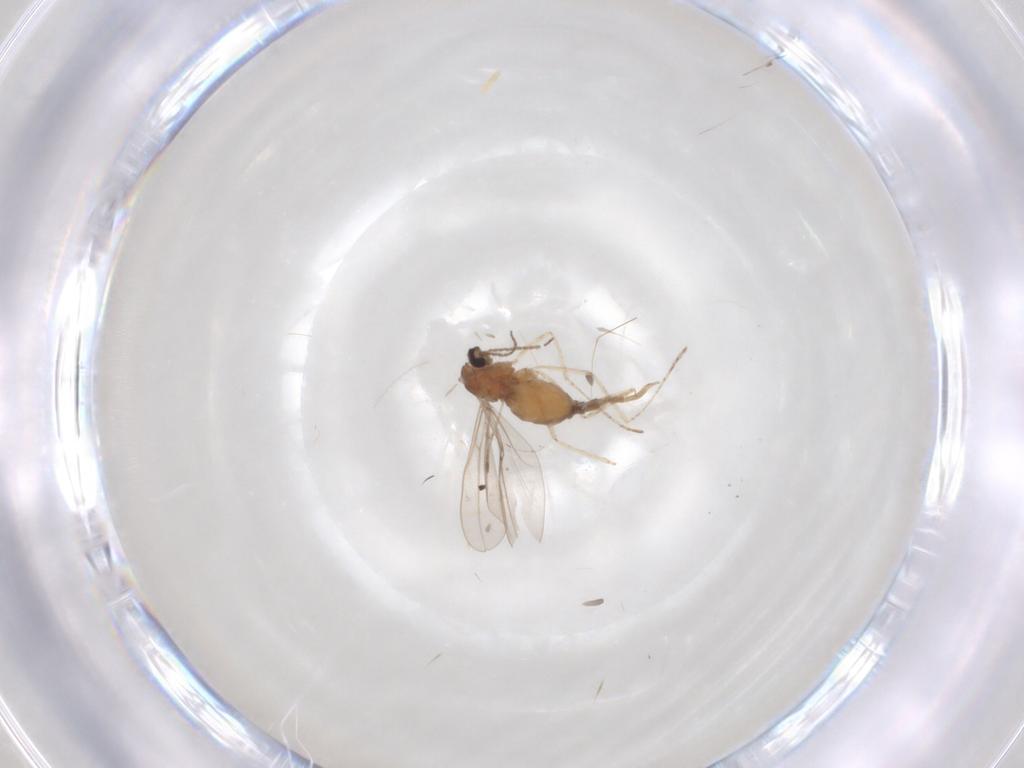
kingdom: Animalia
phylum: Arthropoda
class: Insecta
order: Diptera
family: Cecidomyiidae
